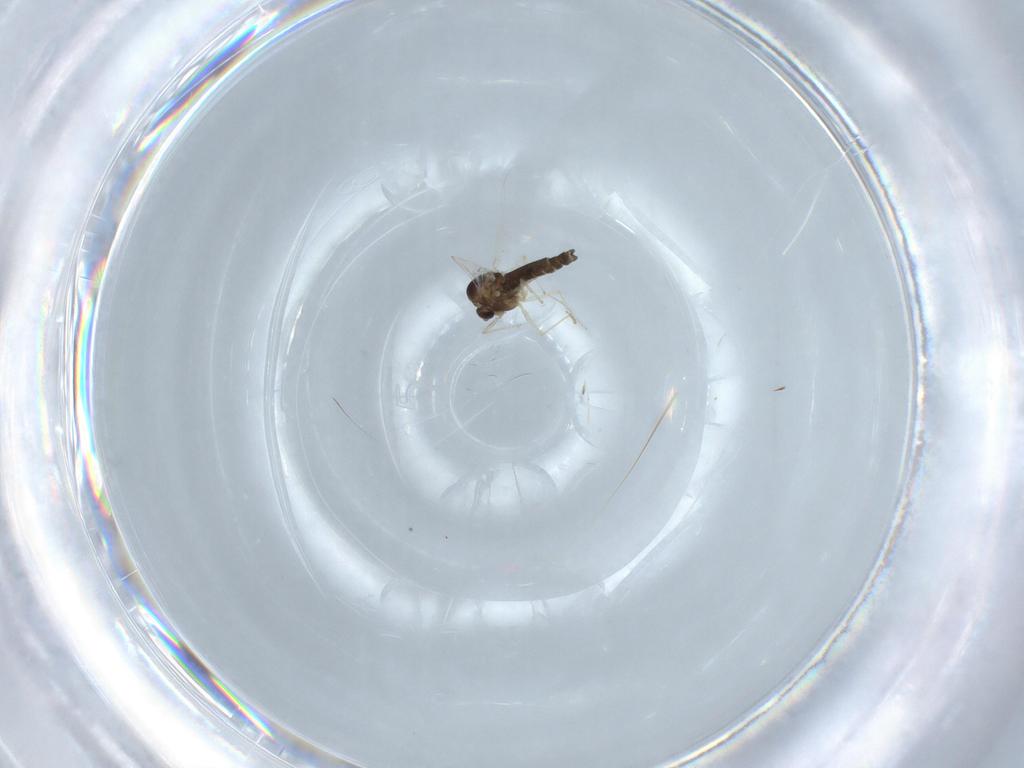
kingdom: Animalia
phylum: Arthropoda
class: Insecta
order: Diptera
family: Chironomidae
